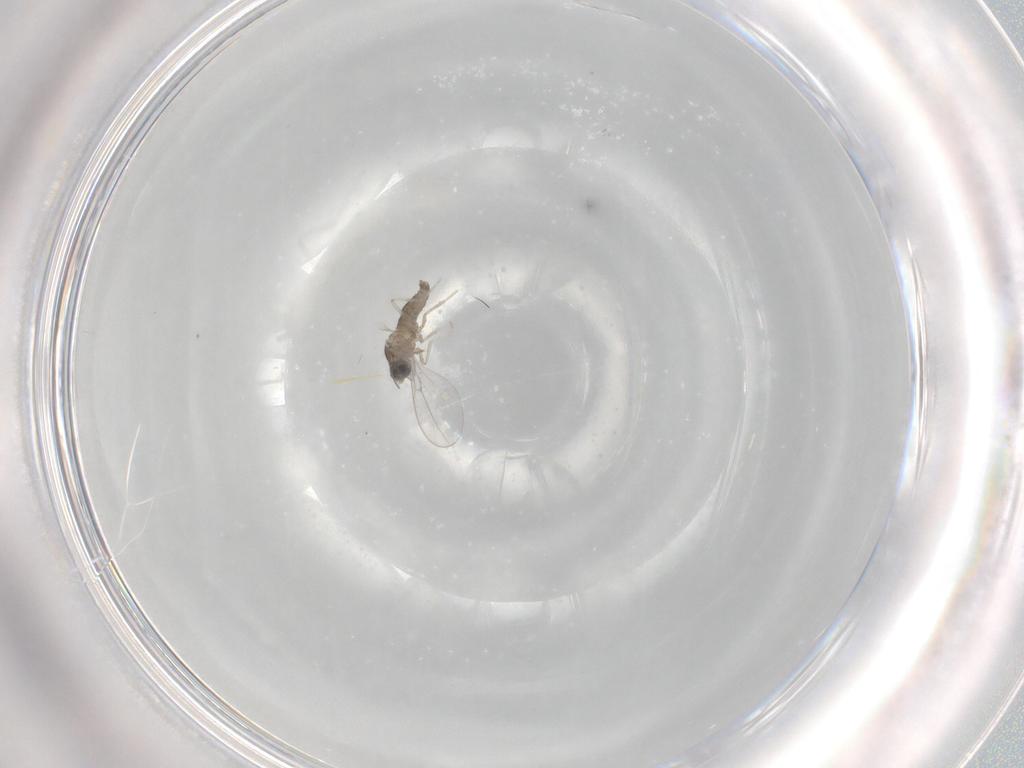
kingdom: Animalia
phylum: Arthropoda
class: Insecta
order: Diptera
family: Cecidomyiidae
